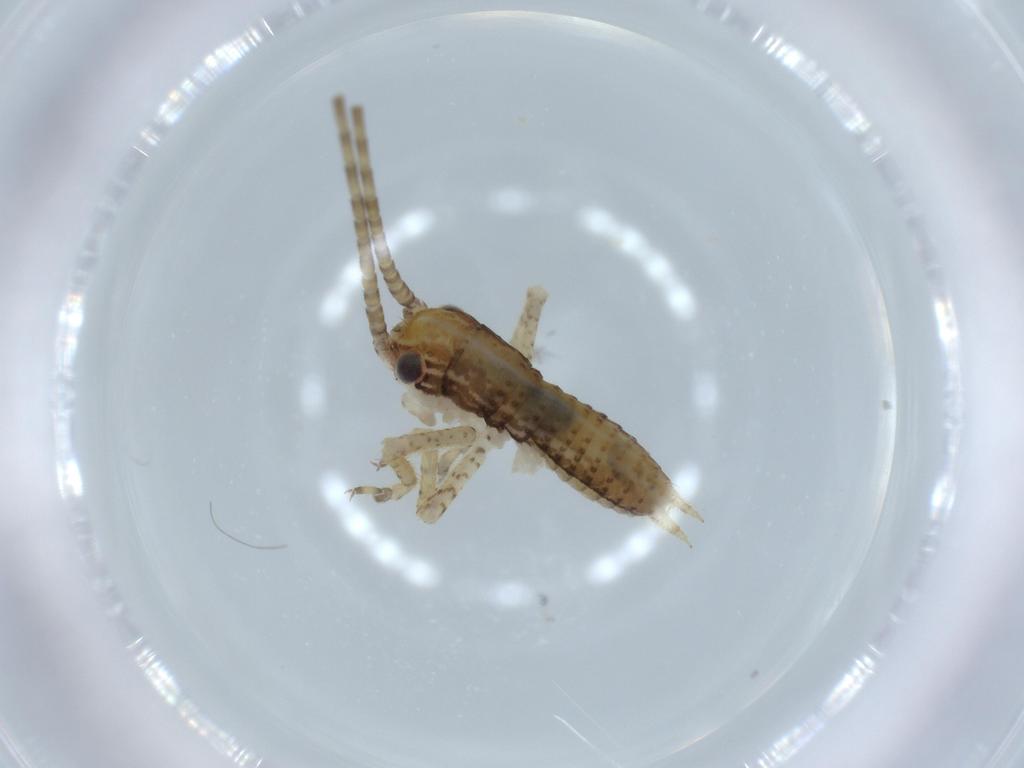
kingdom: Animalia
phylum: Arthropoda
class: Insecta
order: Orthoptera
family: Gryllidae
